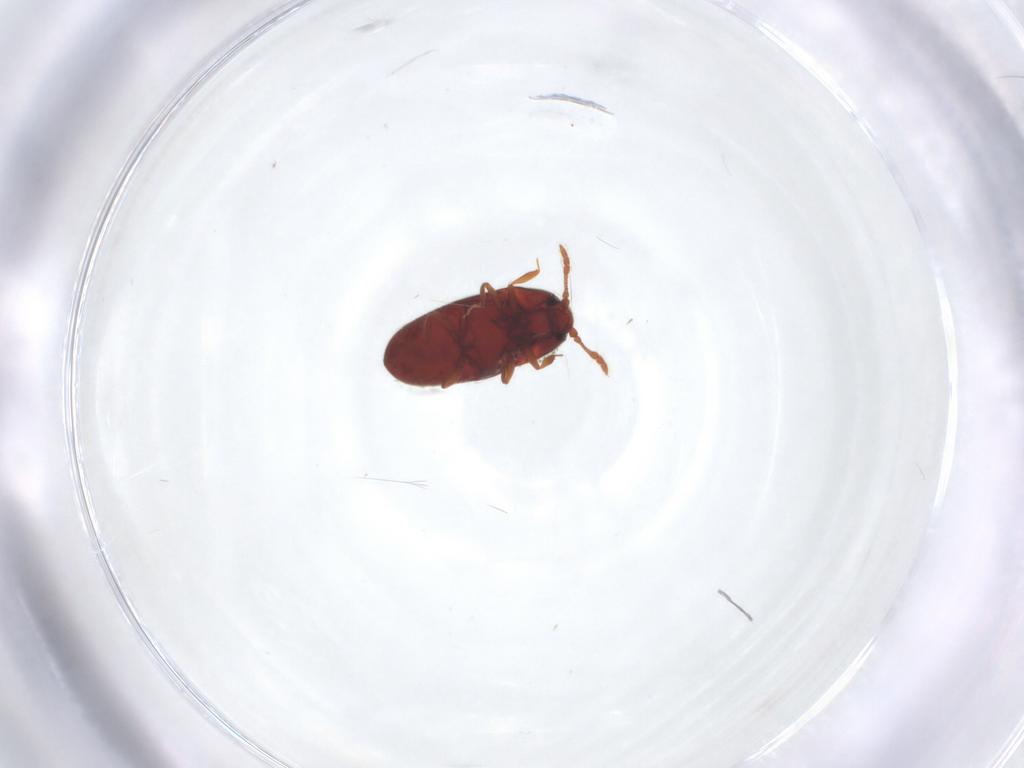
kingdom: Animalia
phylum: Arthropoda
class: Insecta
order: Coleoptera
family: Throscidae
